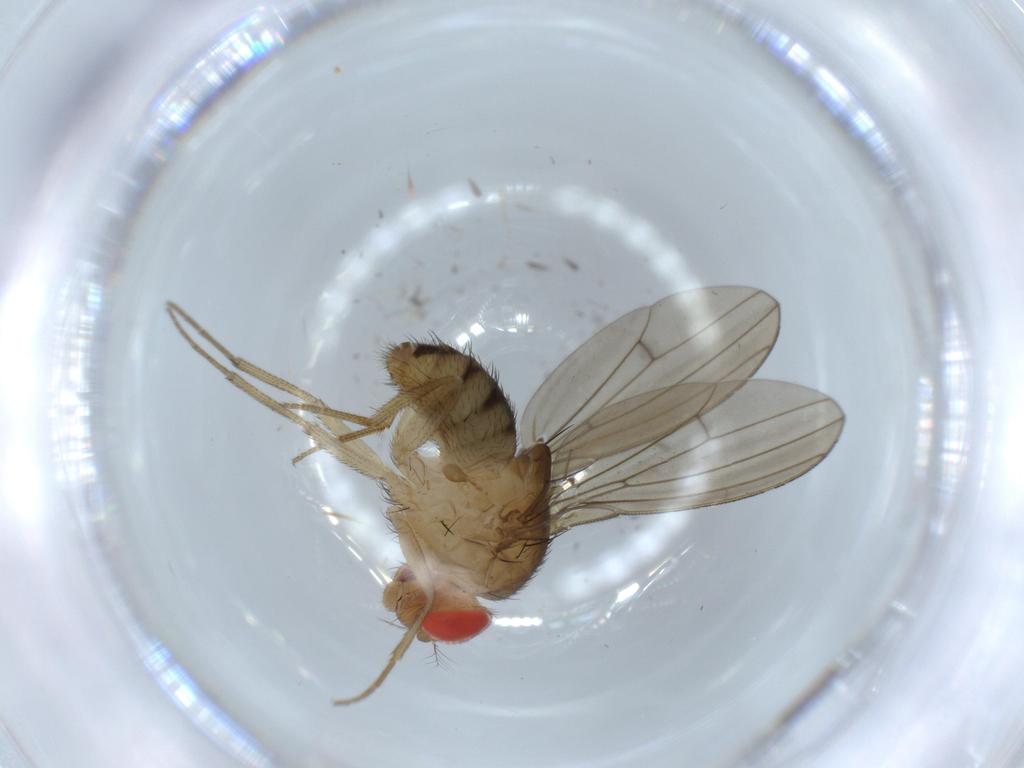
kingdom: Animalia
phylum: Arthropoda
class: Insecta
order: Diptera
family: Drosophilidae
